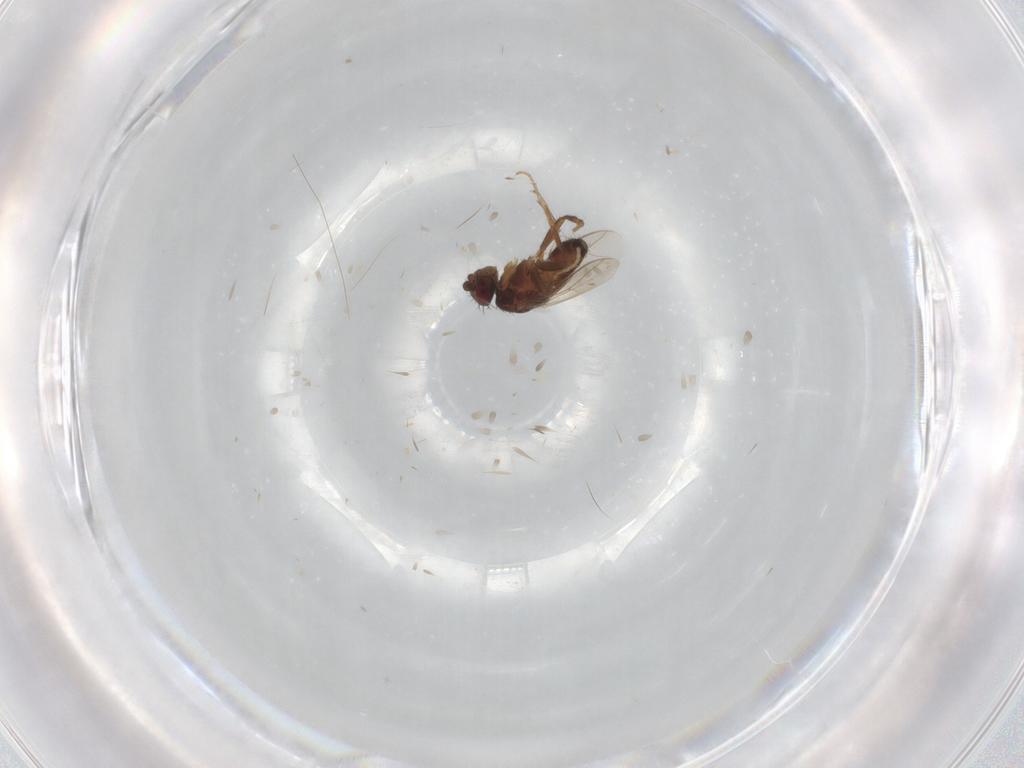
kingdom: Animalia
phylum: Arthropoda
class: Insecta
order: Diptera
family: Sphaeroceridae
